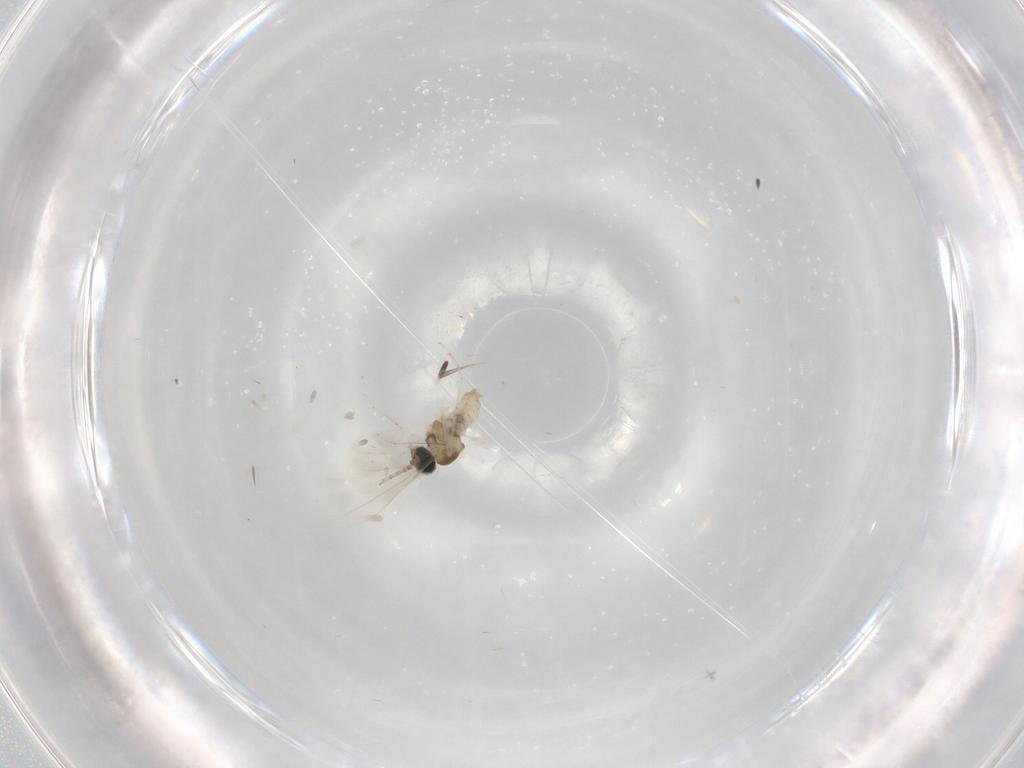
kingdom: Animalia
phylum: Arthropoda
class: Insecta
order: Diptera
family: Cecidomyiidae
